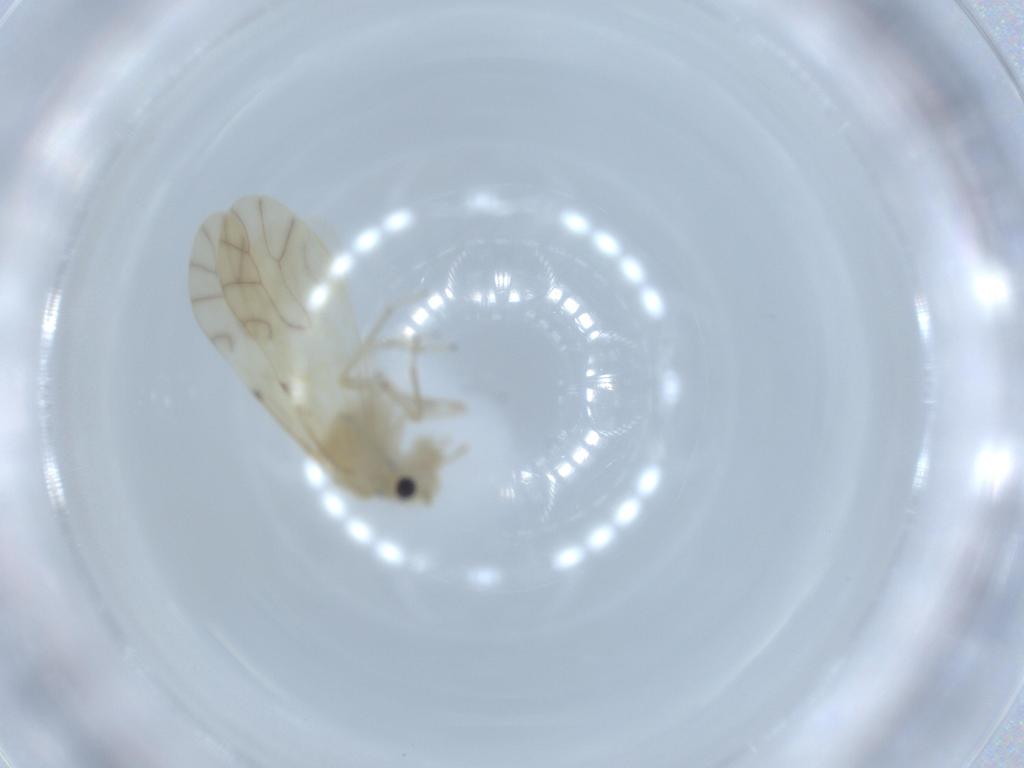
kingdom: Animalia
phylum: Arthropoda
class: Insecta
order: Psocodea
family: Caeciliusidae
